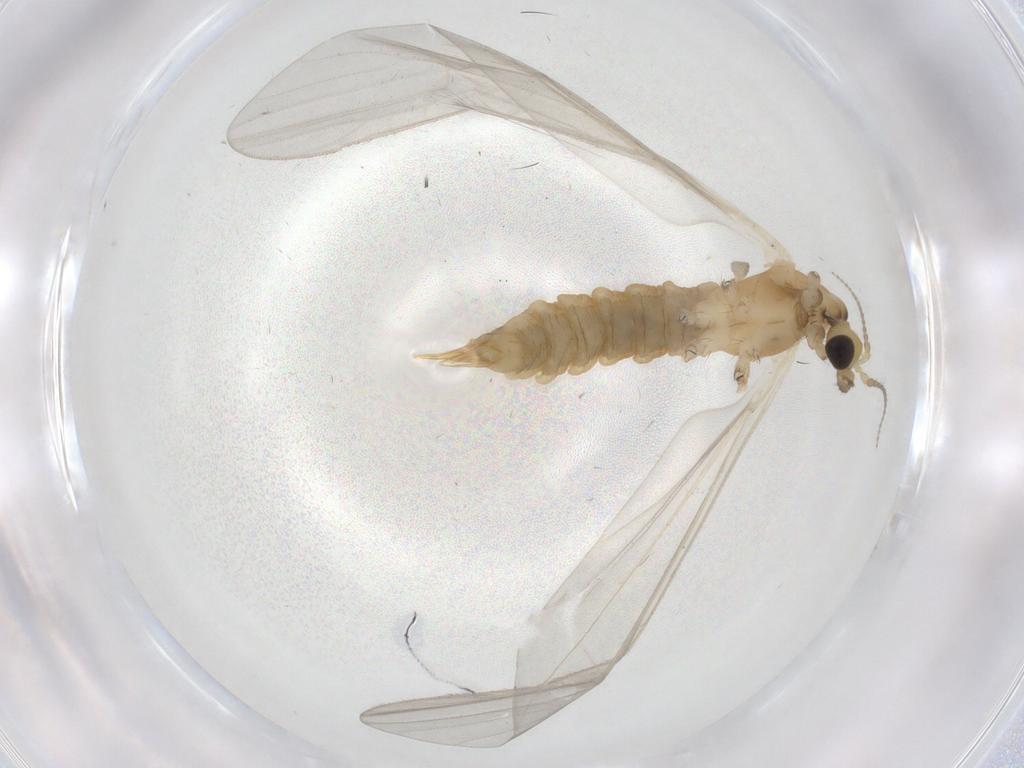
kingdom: Animalia
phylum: Arthropoda
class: Insecta
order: Diptera
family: Limoniidae
